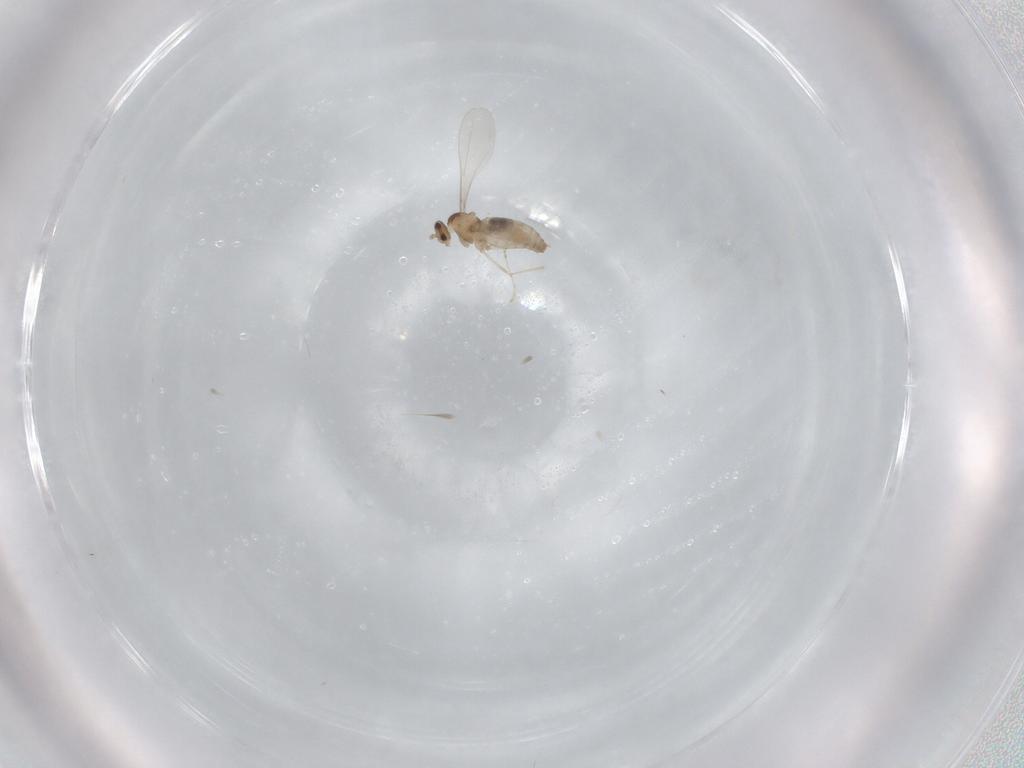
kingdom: Animalia
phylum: Arthropoda
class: Insecta
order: Diptera
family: Cecidomyiidae
